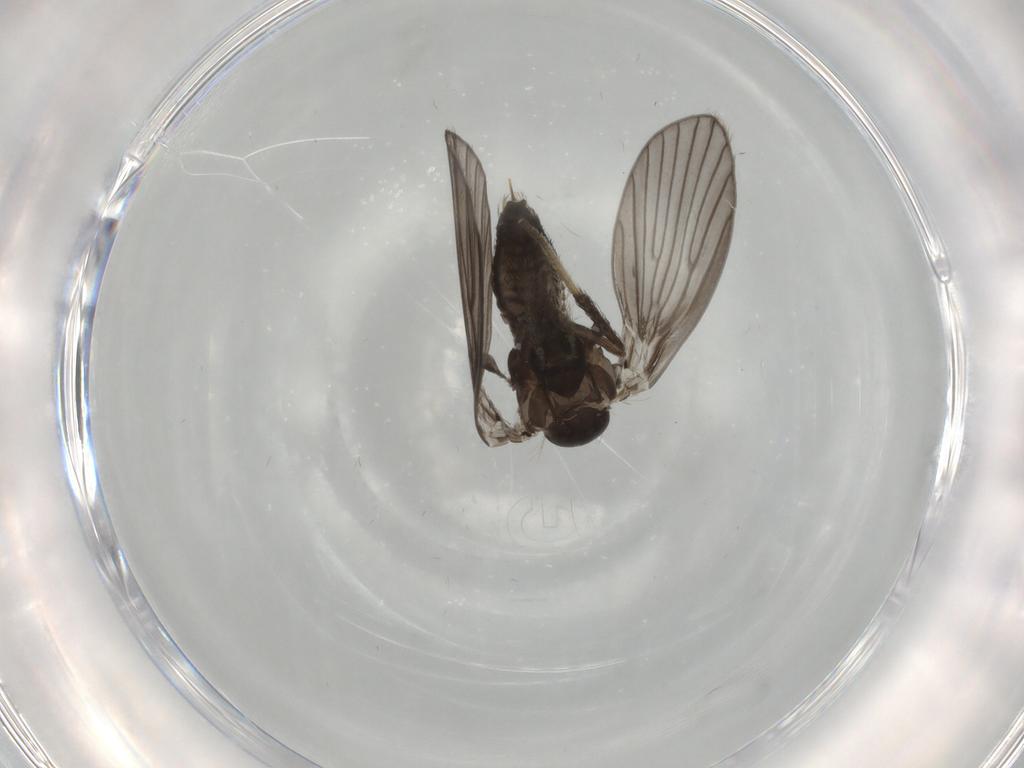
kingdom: Animalia
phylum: Arthropoda
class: Insecta
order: Diptera
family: Psychodidae
